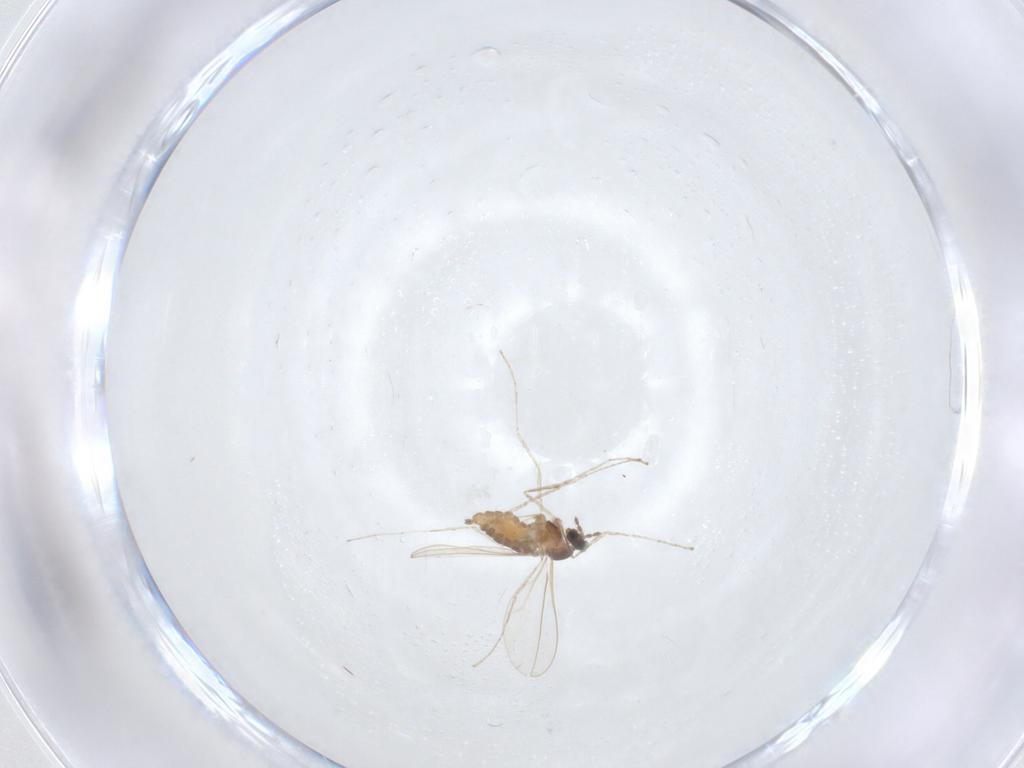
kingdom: Animalia
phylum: Arthropoda
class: Insecta
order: Diptera
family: Cecidomyiidae
